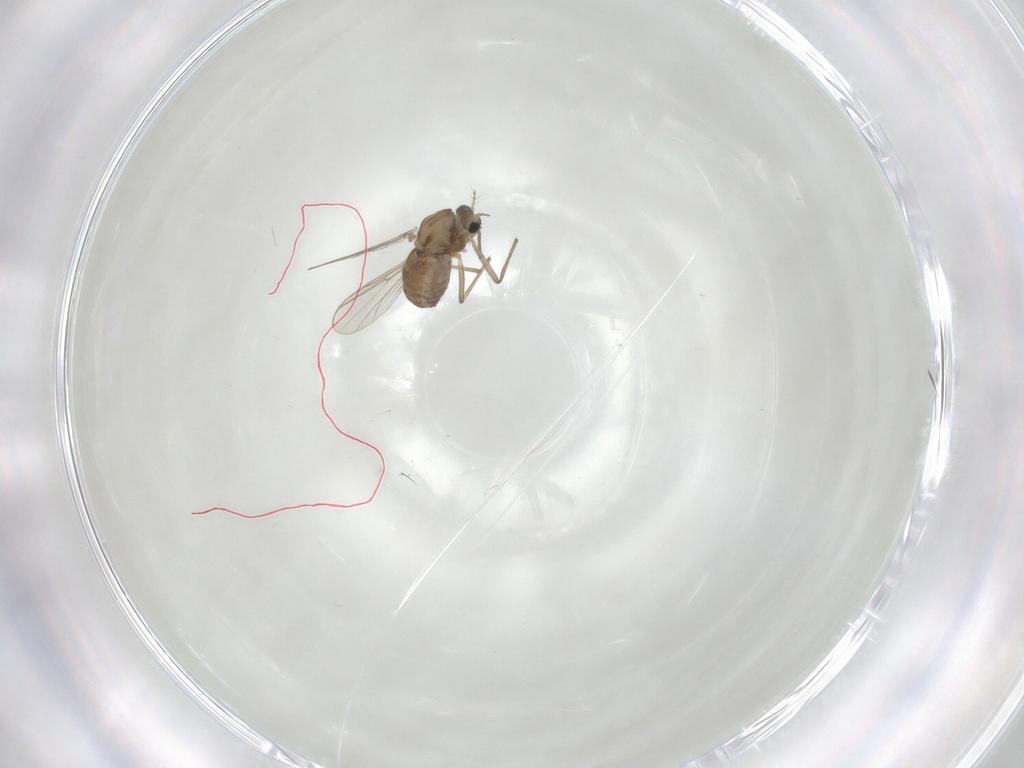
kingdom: Animalia
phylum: Arthropoda
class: Insecta
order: Diptera
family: Chironomidae
